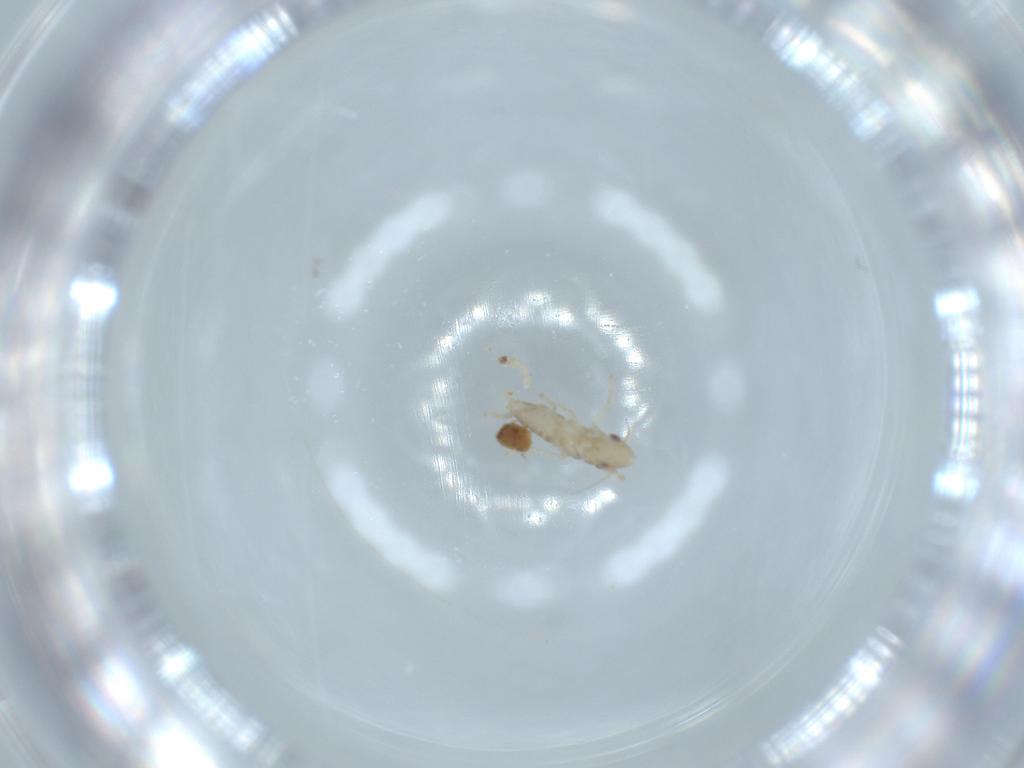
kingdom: Animalia
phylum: Arthropoda
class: Insecta
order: Hemiptera
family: Cicadellidae
